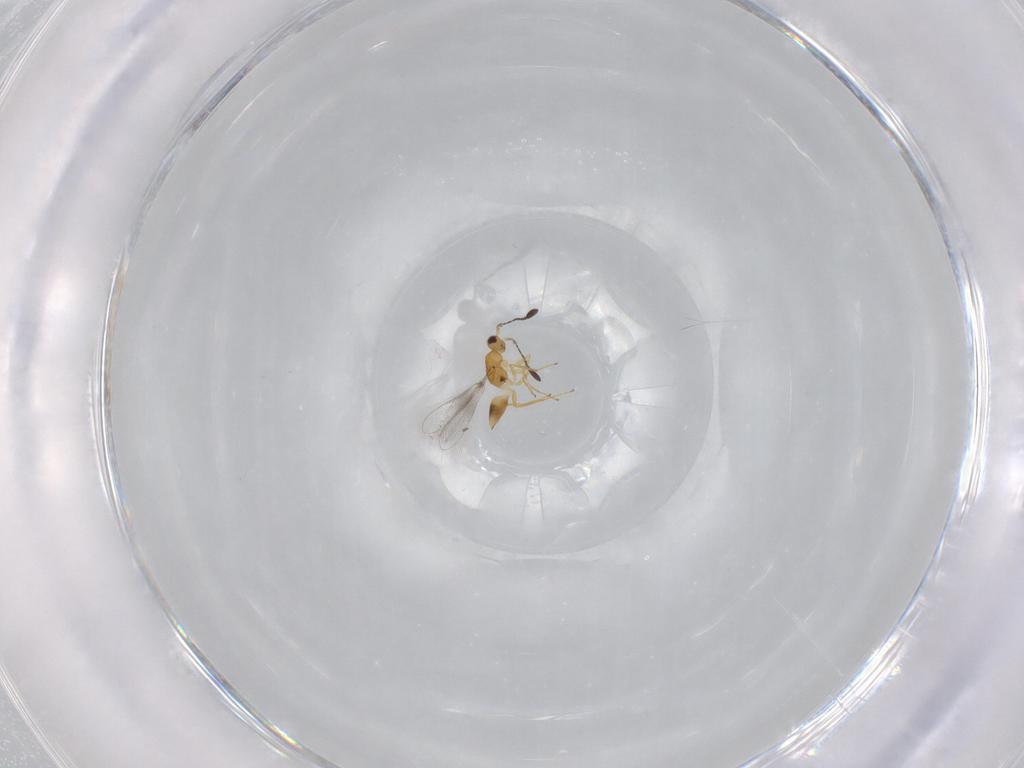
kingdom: Animalia
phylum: Arthropoda
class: Insecta
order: Hymenoptera
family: Mymaridae
